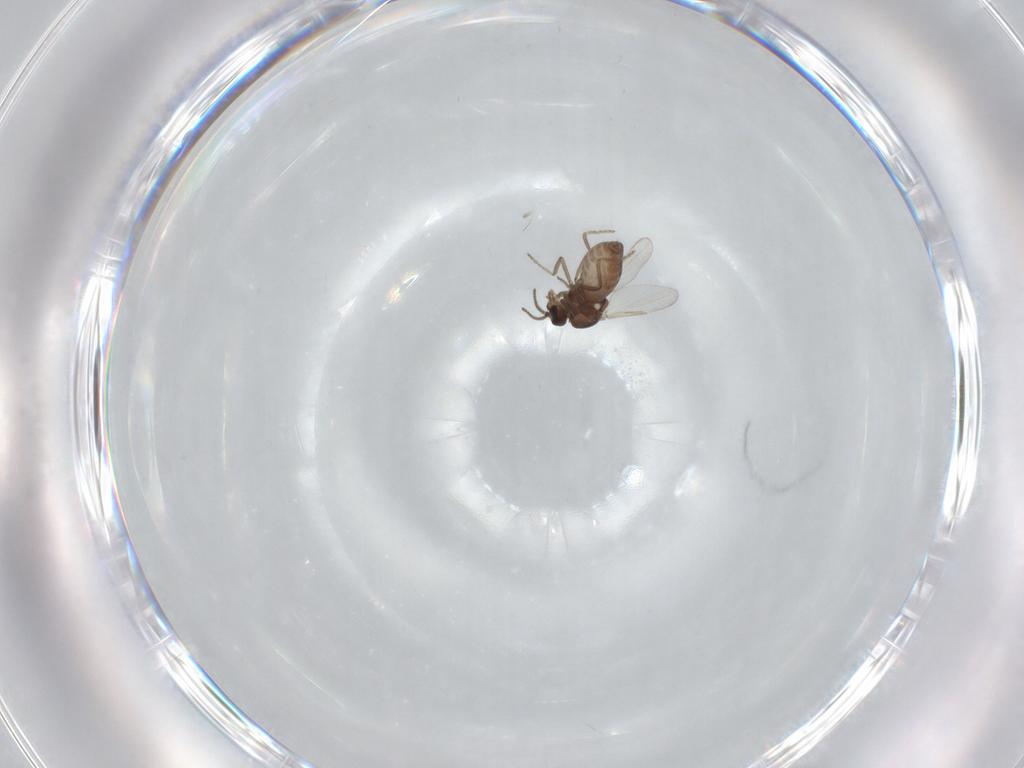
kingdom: Animalia
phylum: Arthropoda
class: Insecta
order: Diptera
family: Ceratopogonidae
